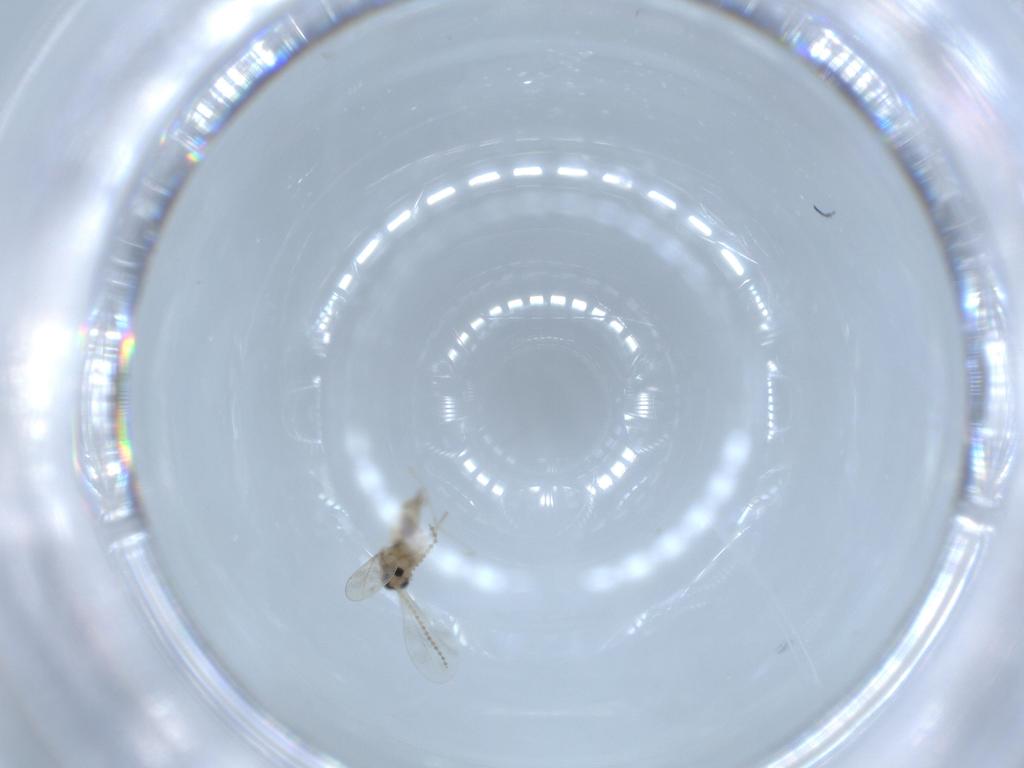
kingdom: Animalia
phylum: Arthropoda
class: Insecta
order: Diptera
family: Cecidomyiidae
